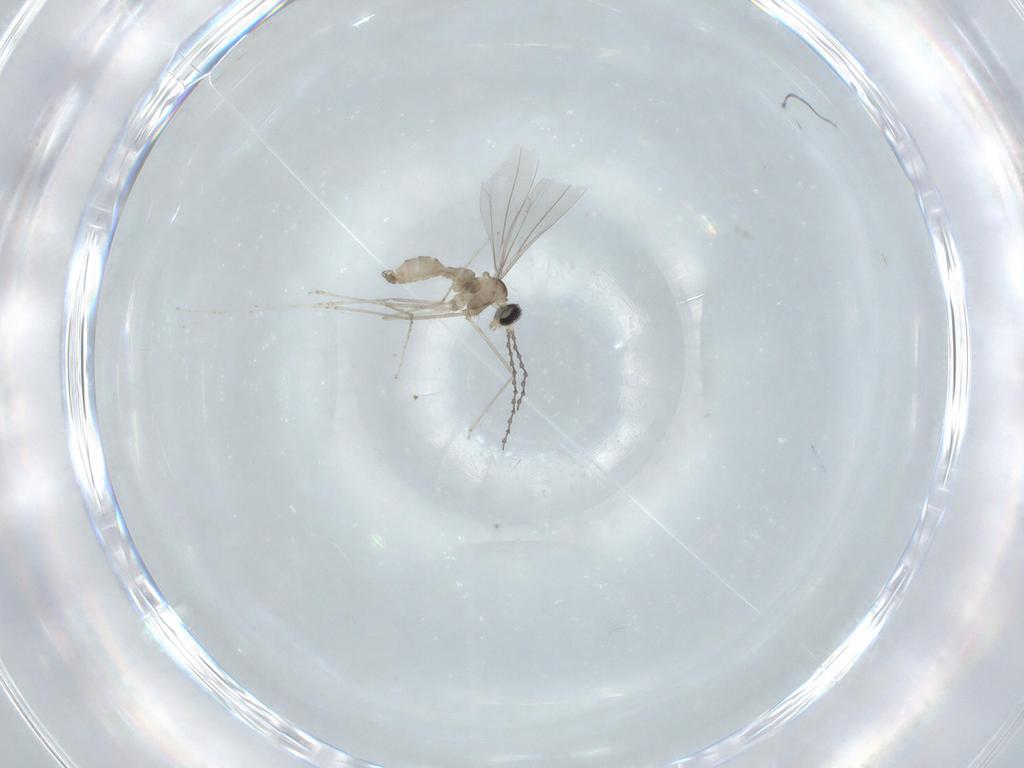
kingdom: Animalia
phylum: Arthropoda
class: Insecta
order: Diptera
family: Cecidomyiidae
